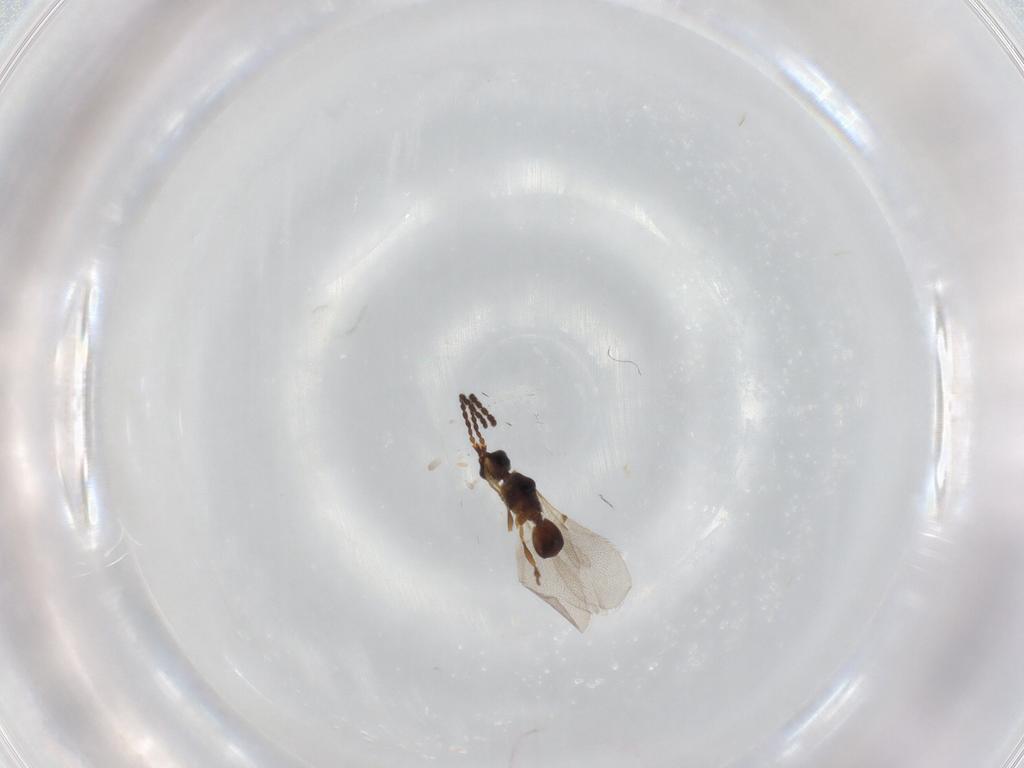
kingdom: Animalia
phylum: Arthropoda
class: Insecta
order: Hymenoptera
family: Diapriidae
